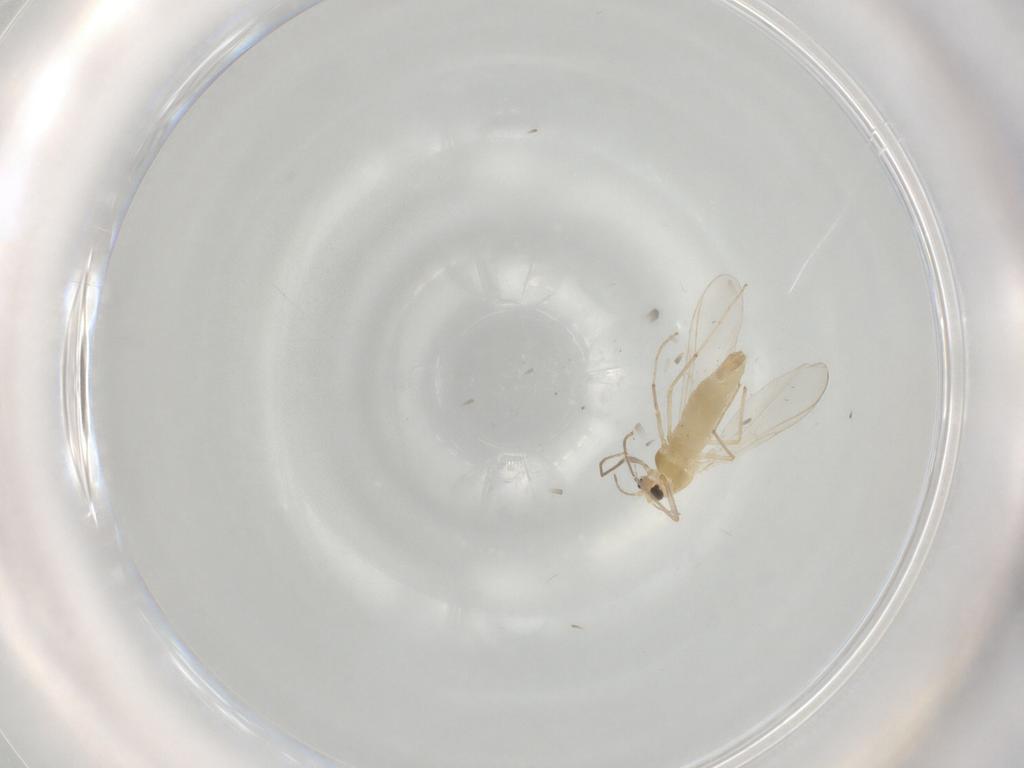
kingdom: Animalia
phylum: Arthropoda
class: Insecta
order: Diptera
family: Chironomidae
